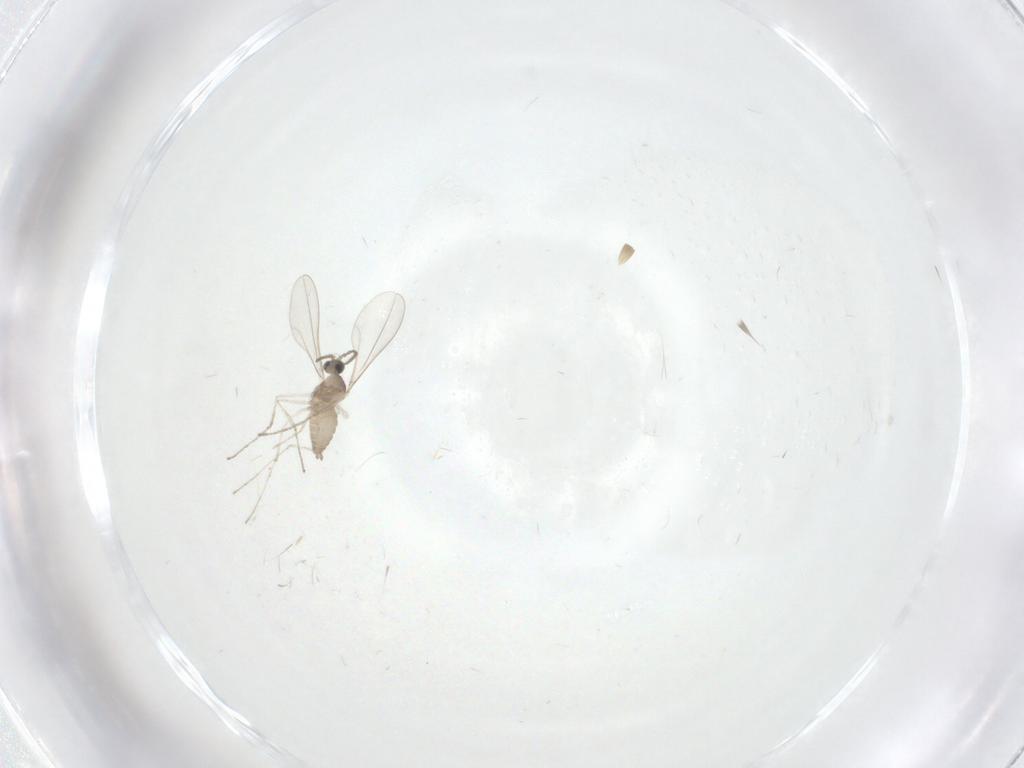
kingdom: Animalia
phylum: Arthropoda
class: Insecta
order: Diptera
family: Cecidomyiidae
